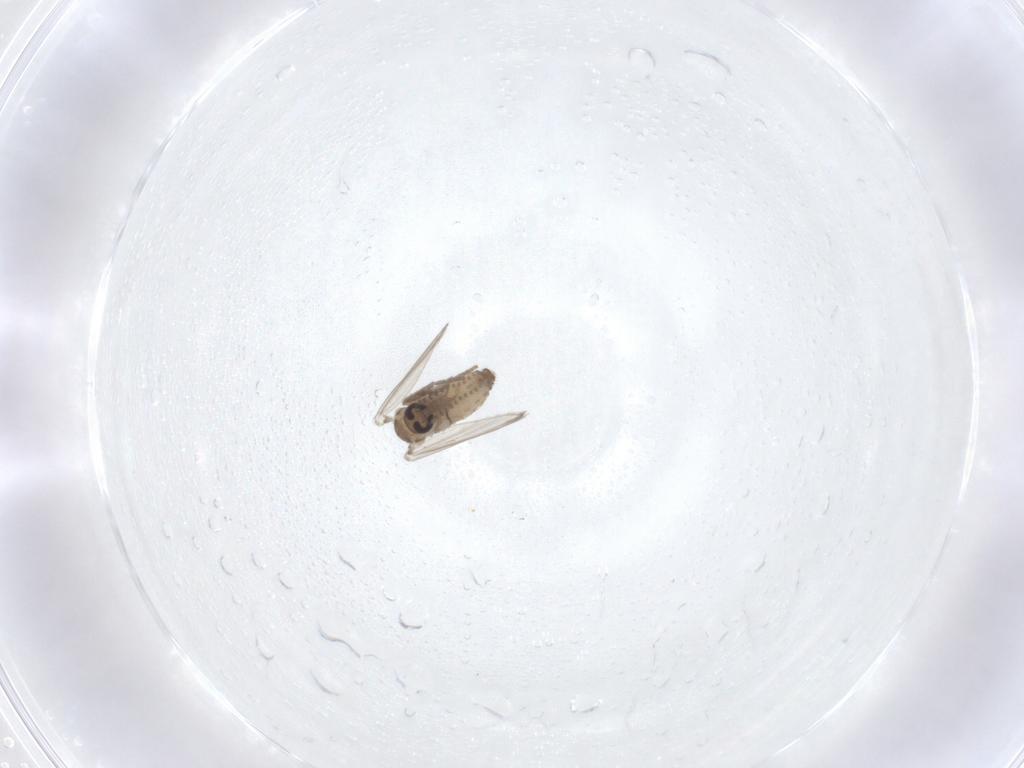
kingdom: Animalia
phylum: Arthropoda
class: Insecta
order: Diptera
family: Psychodidae
